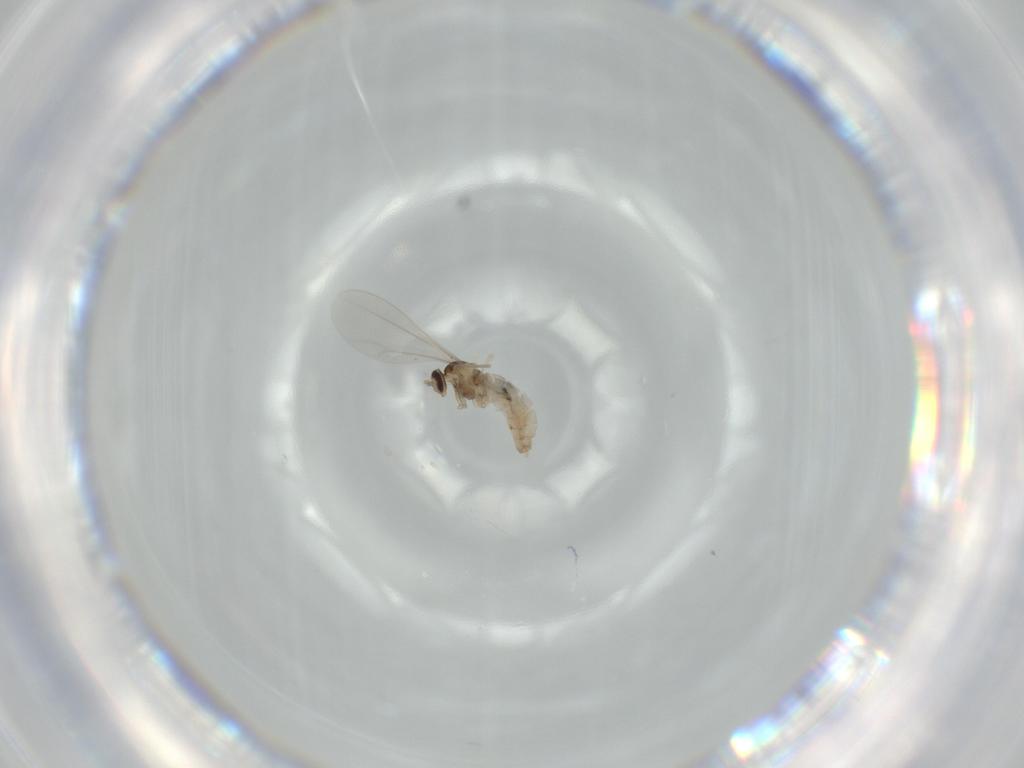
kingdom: Animalia
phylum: Arthropoda
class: Insecta
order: Diptera
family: Cecidomyiidae
